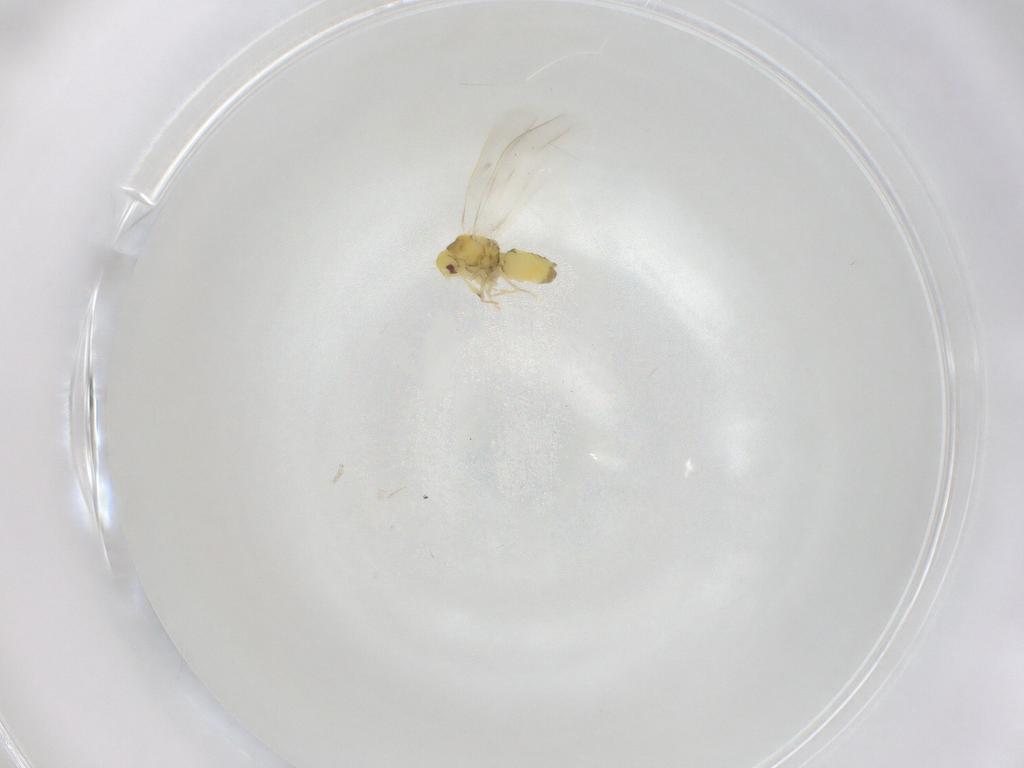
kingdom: Animalia
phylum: Arthropoda
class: Insecta
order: Hemiptera
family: Aleyrodidae
